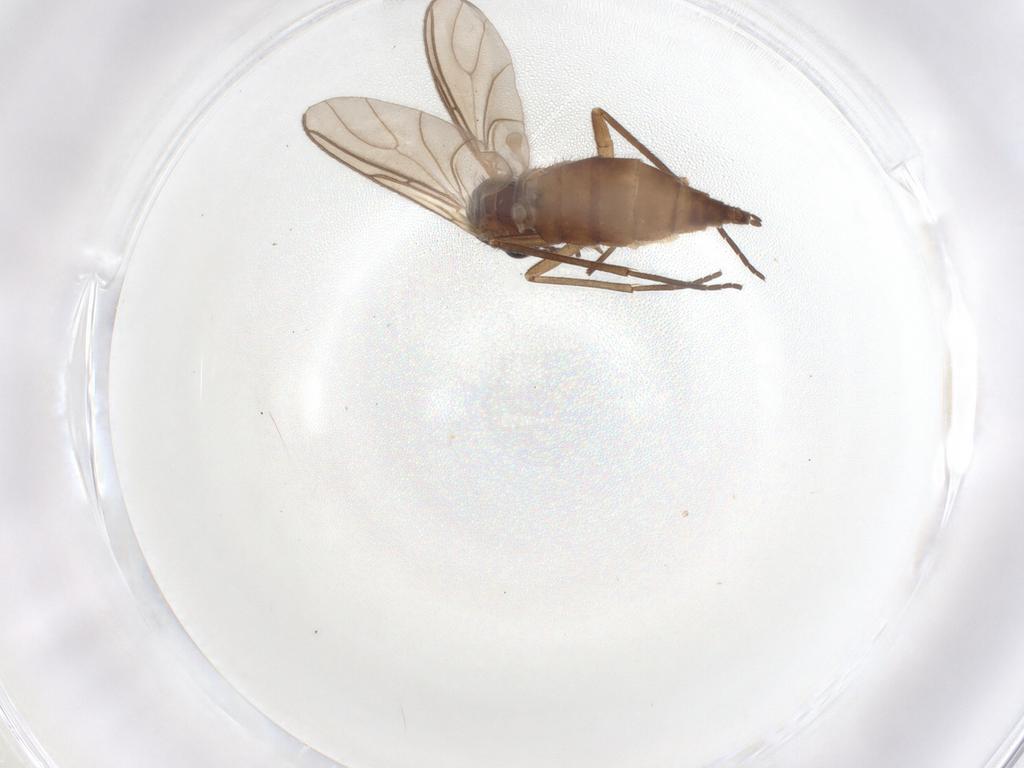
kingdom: Animalia
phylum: Arthropoda
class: Insecta
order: Diptera
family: Sciaridae
